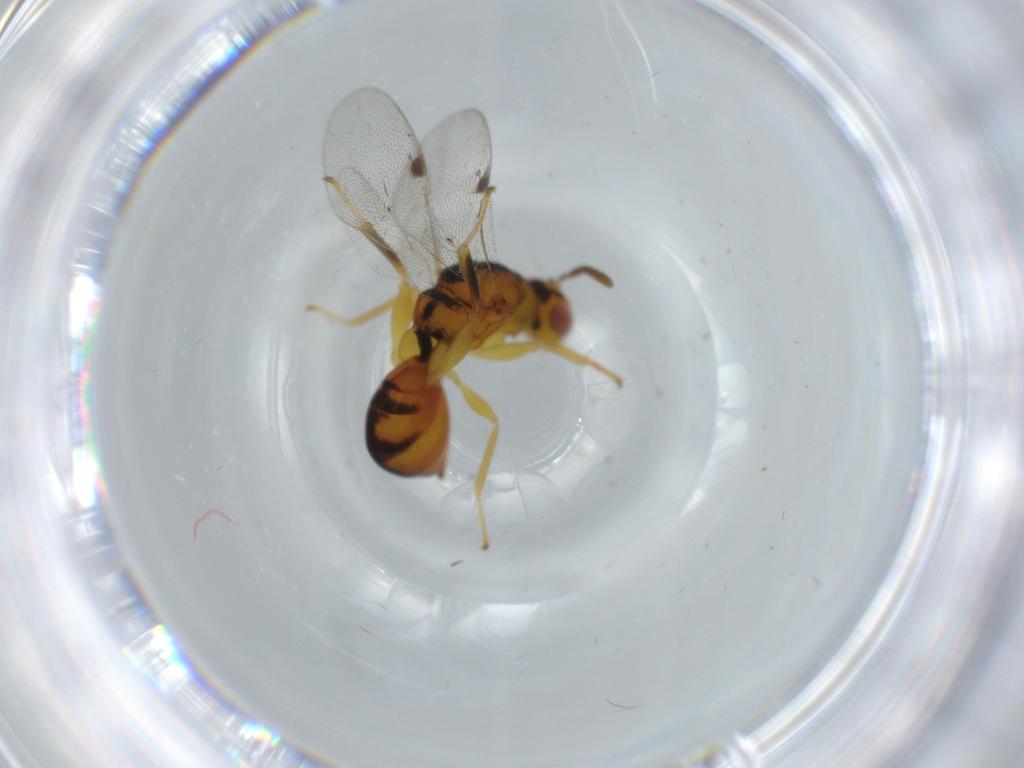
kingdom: Animalia
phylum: Arthropoda
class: Insecta
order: Hymenoptera
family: Eurytomidae
